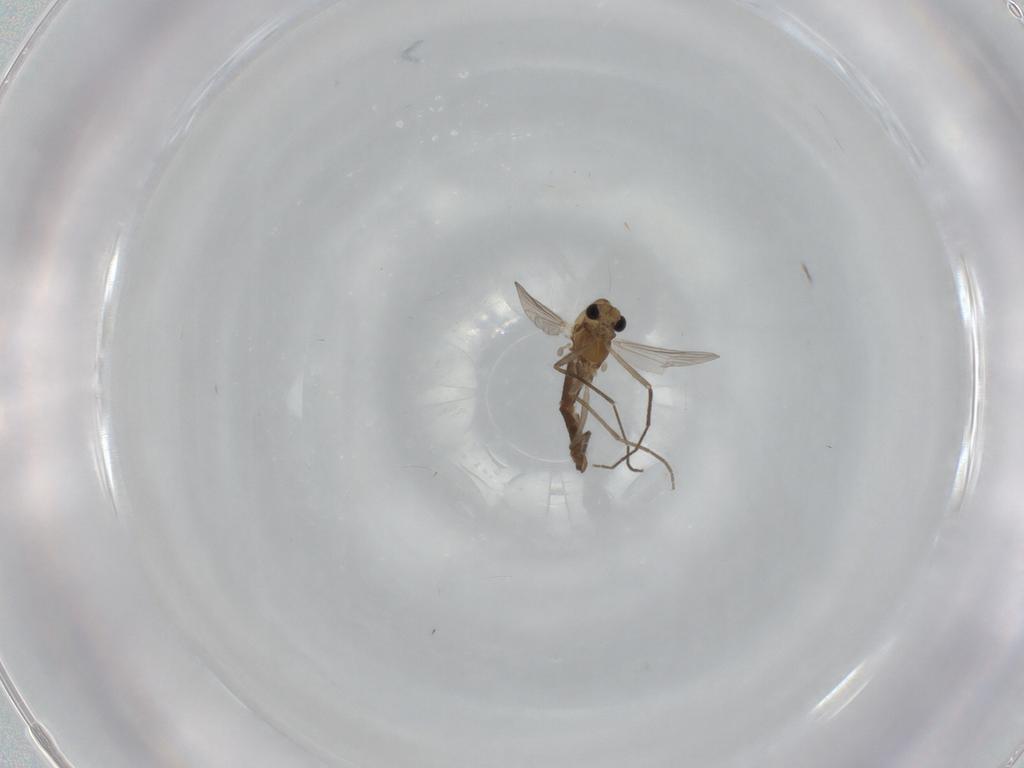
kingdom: Animalia
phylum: Arthropoda
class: Insecta
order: Diptera
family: Chironomidae
